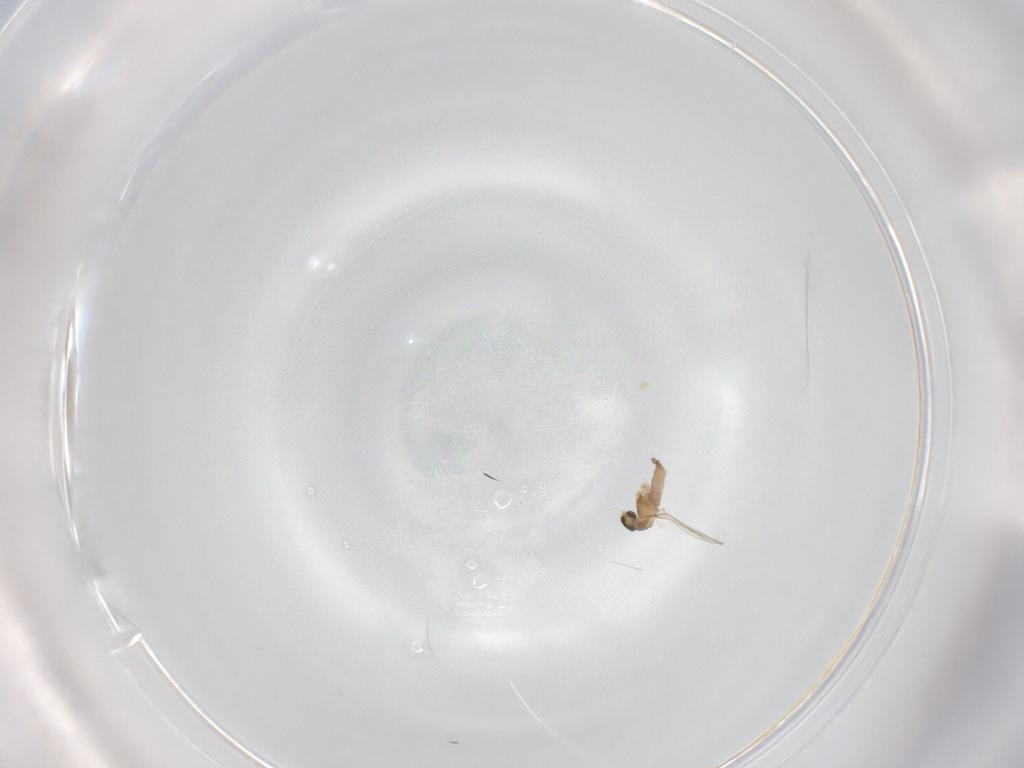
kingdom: Animalia
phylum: Arthropoda
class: Insecta
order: Diptera
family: Cecidomyiidae
